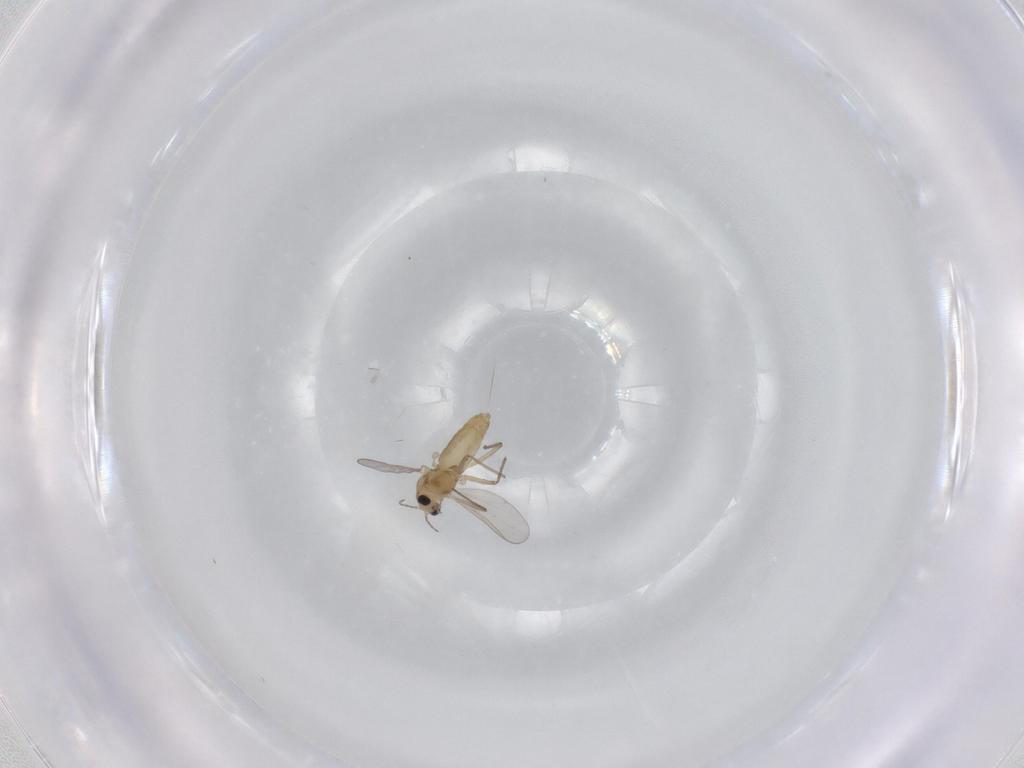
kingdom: Animalia
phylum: Arthropoda
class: Insecta
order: Diptera
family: Chironomidae
